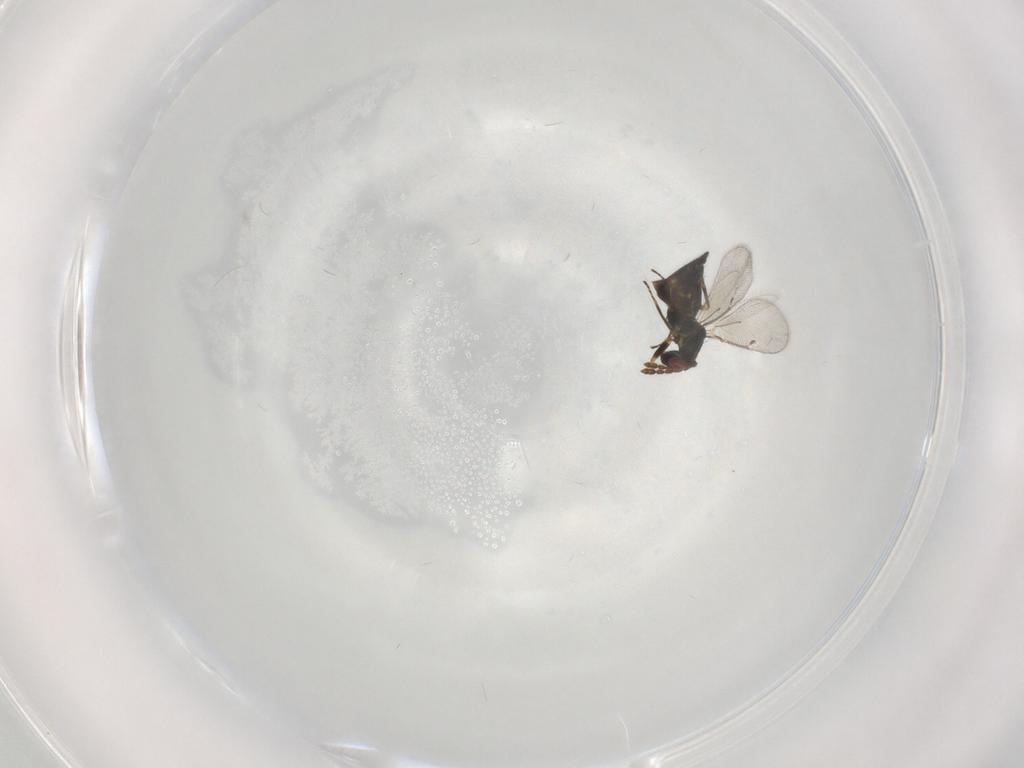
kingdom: Animalia
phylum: Arthropoda
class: Insecta
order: Hymenoptera
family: Eulophidae
